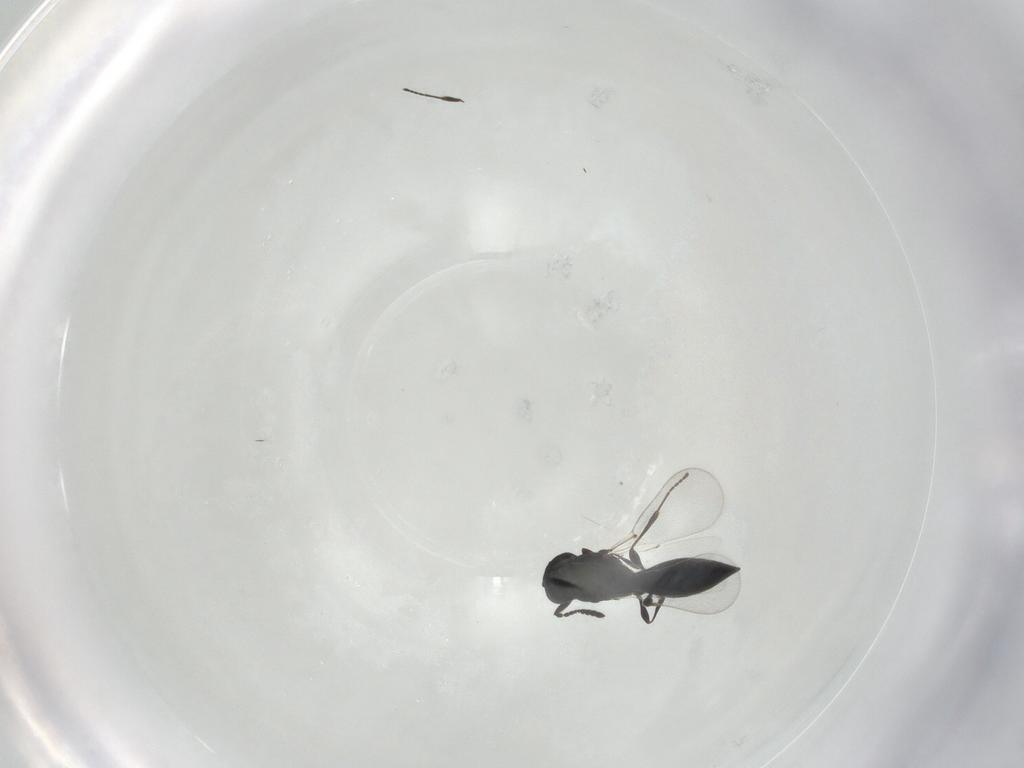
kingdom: Animalia
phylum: Arthropoda
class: Insecta
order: Hymenoptera
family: Platygastridae
